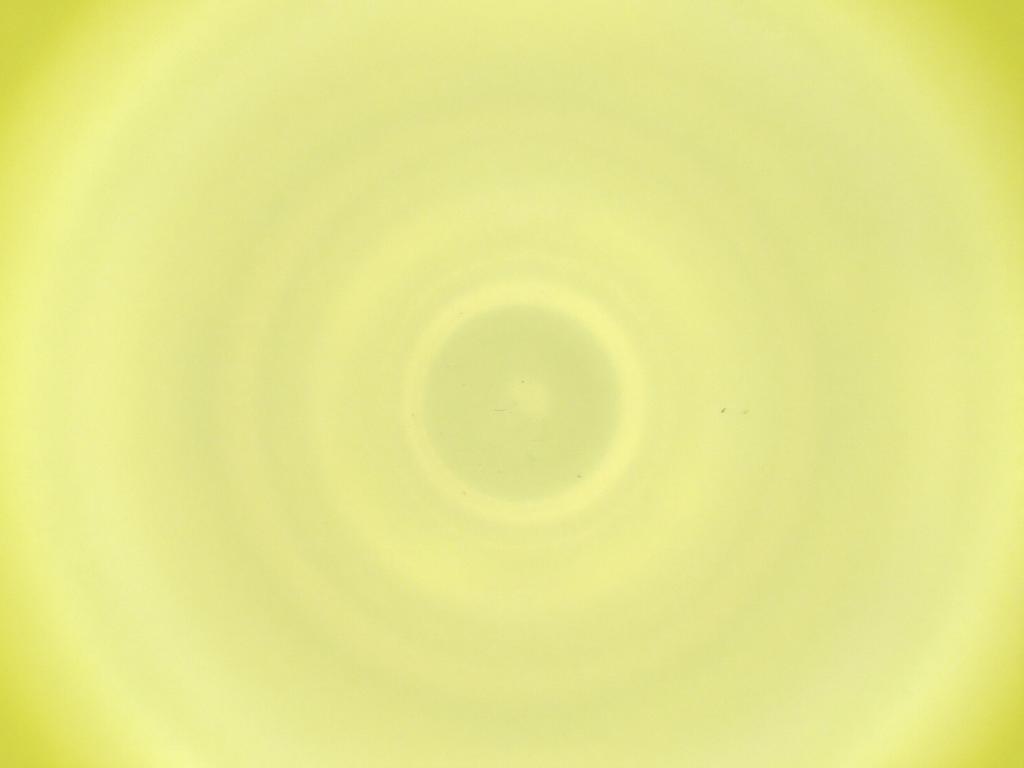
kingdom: Animalia
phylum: Arthropoda
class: Insecta
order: Diptera
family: Cecidomyiidae
